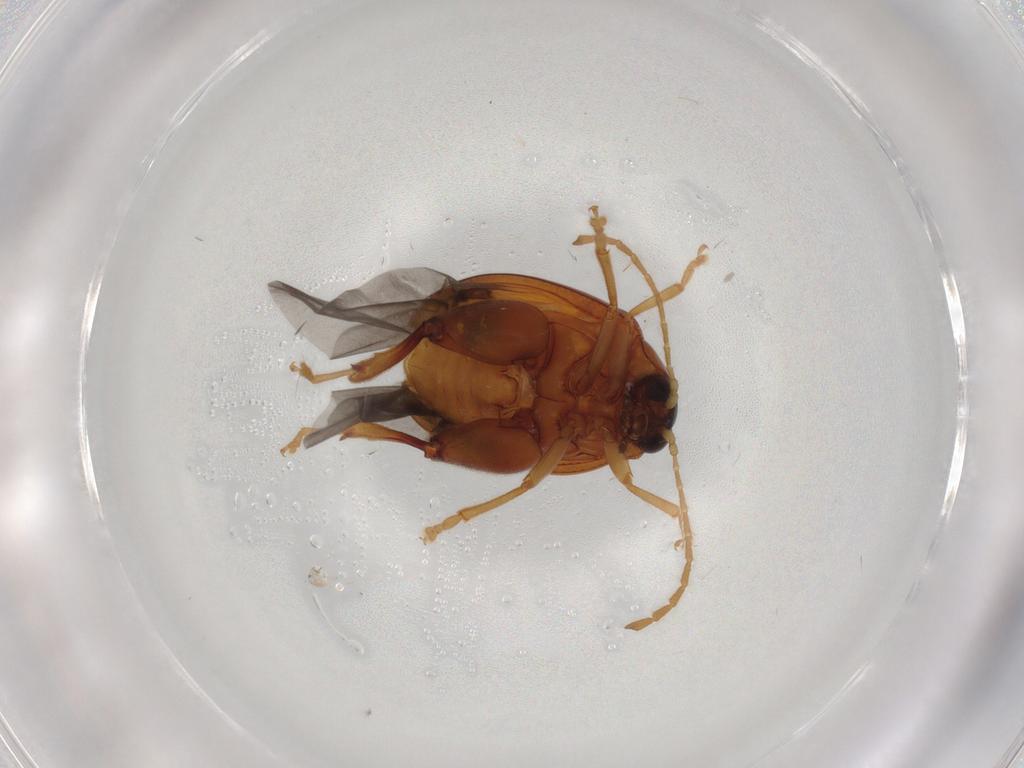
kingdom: Animalia
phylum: Arthropoda
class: Insecta
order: Coleoptera
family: Chrysomelidae
